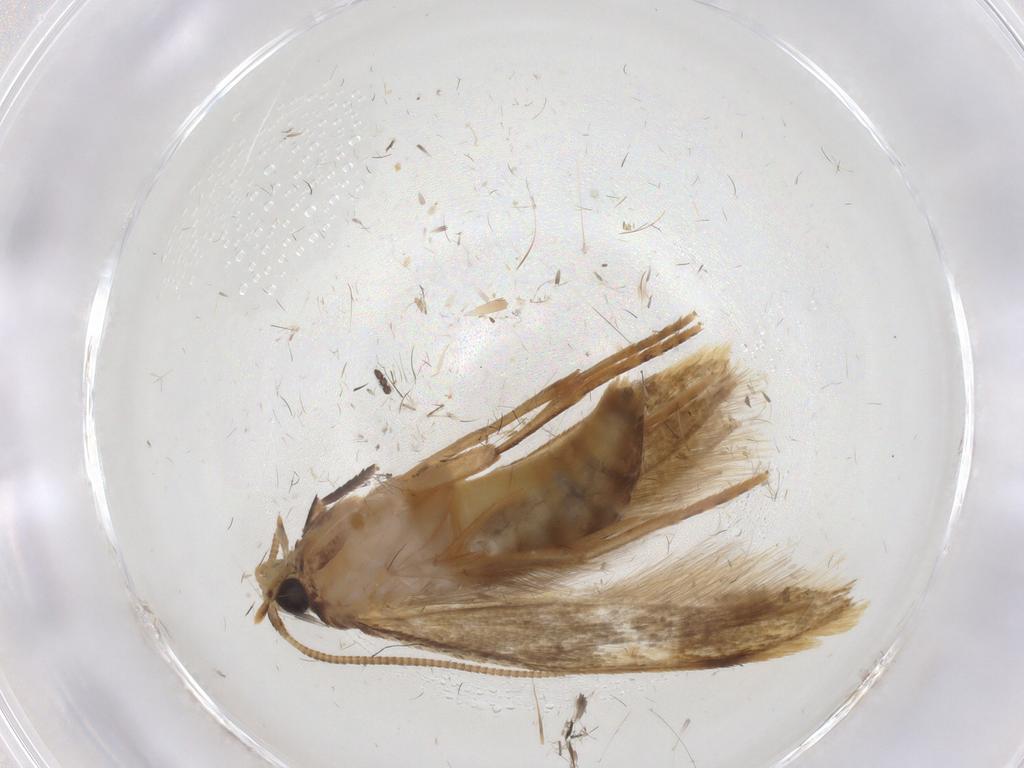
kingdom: Animalia
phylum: Arthropoda
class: Insecta
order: Lepidoptera
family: Tineidae
